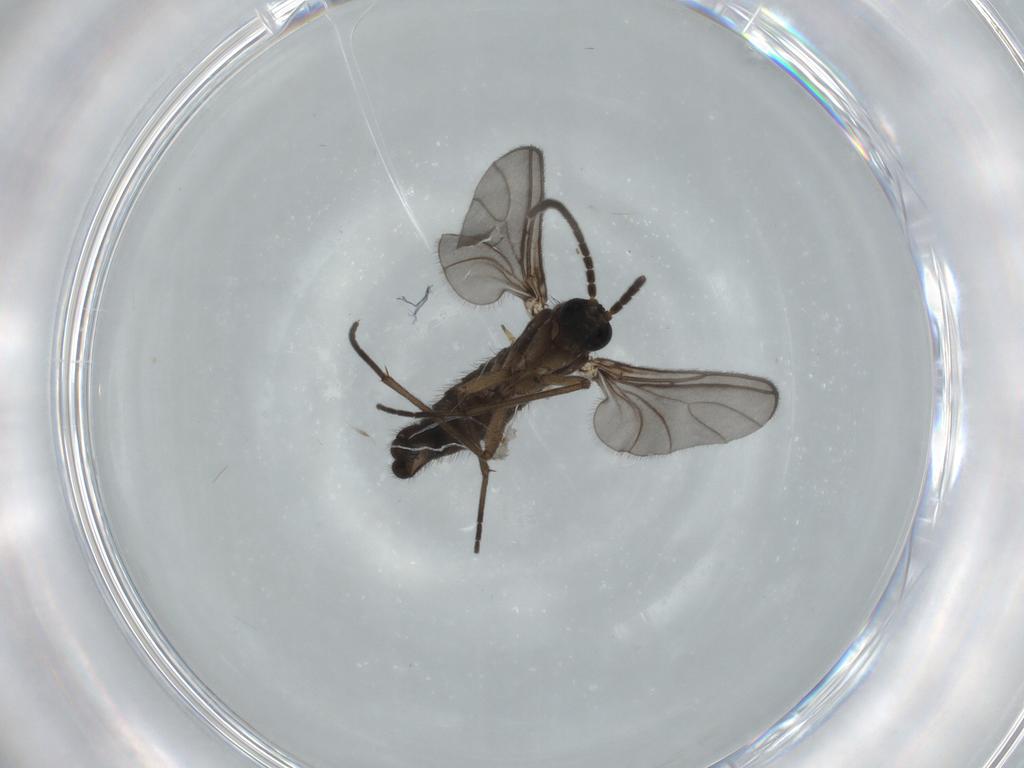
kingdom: Animalia
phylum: Arthropoda
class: Insecta
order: Diptera
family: Sciaridae
